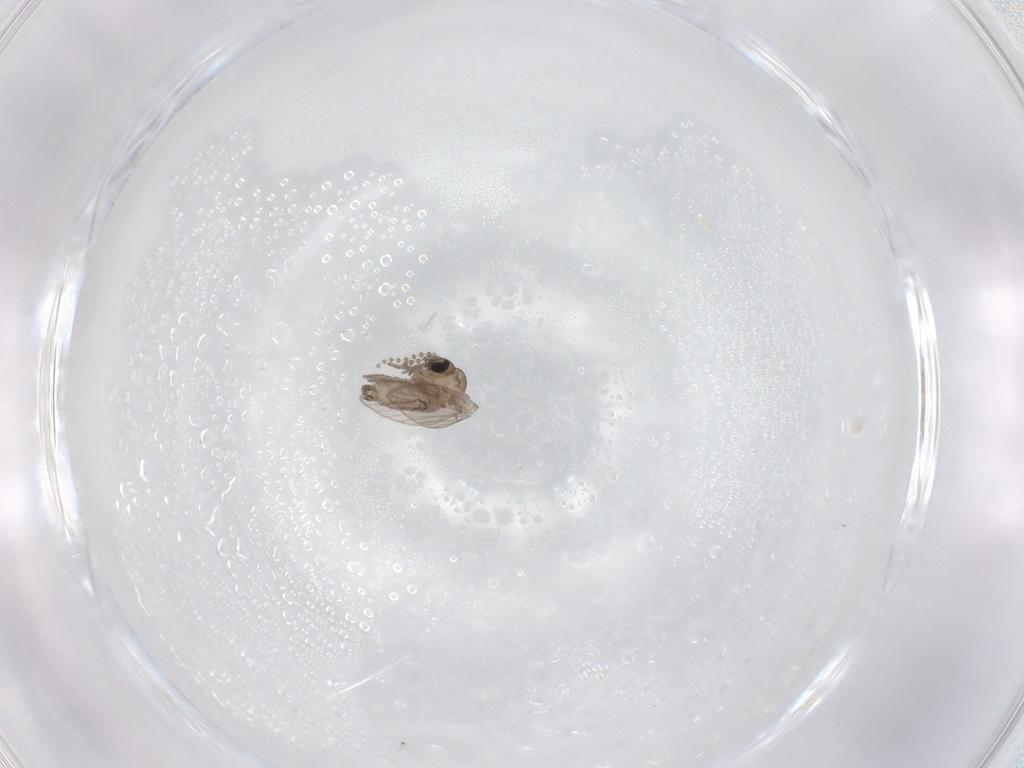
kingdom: Animalia
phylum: Arthropoda
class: Insecta
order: Diptera
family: Psychodidae
